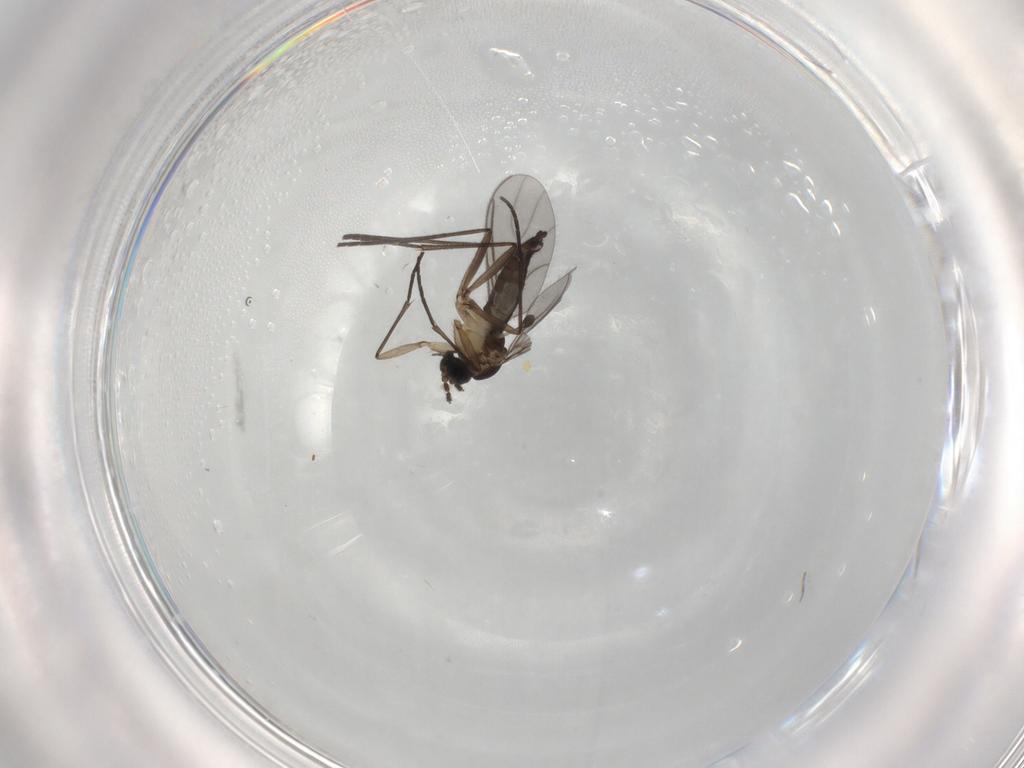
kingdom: Animalia
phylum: Arthropoda
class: Insecta
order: Diptera
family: Sciaridae
